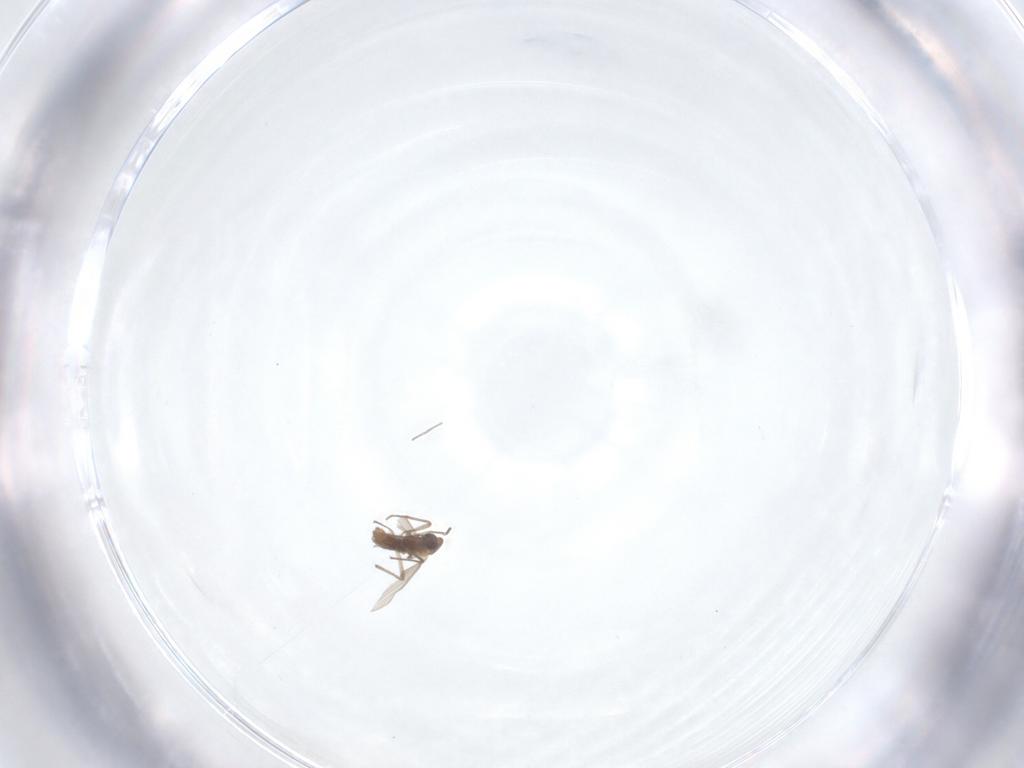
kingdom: Animalia
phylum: Arthropoda
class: Insecta
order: Diptera
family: Chironomidae
